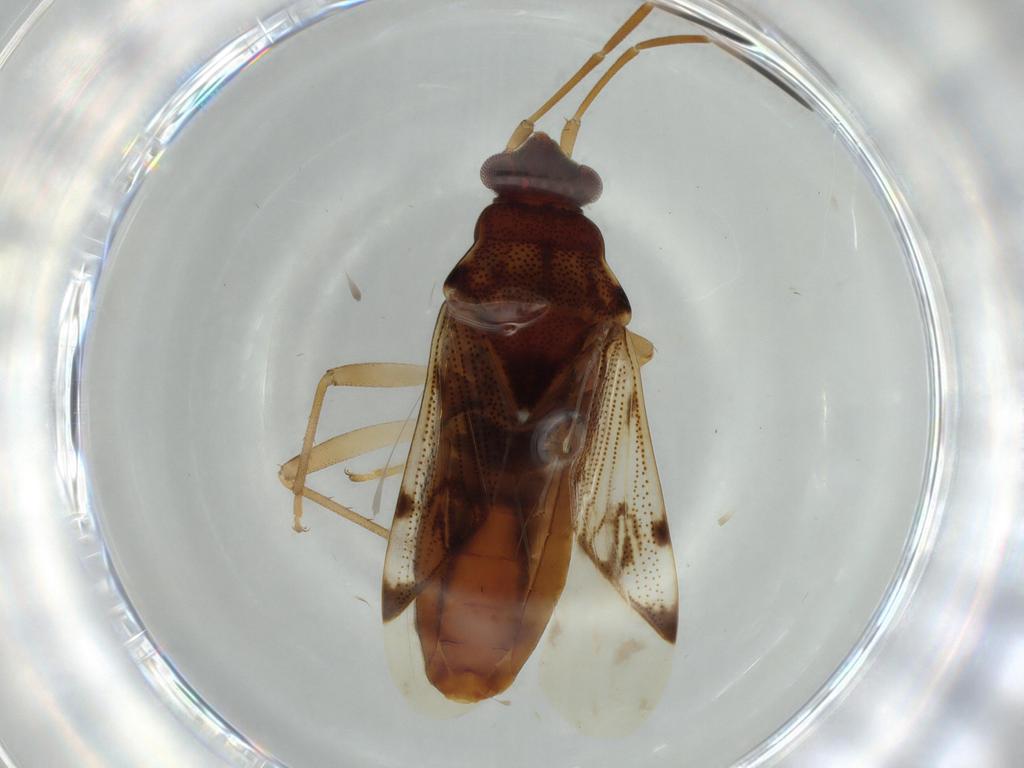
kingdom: Animalia
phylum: Arthropoda
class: Insecta
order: Hemiptera
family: Rhyparochromidae
